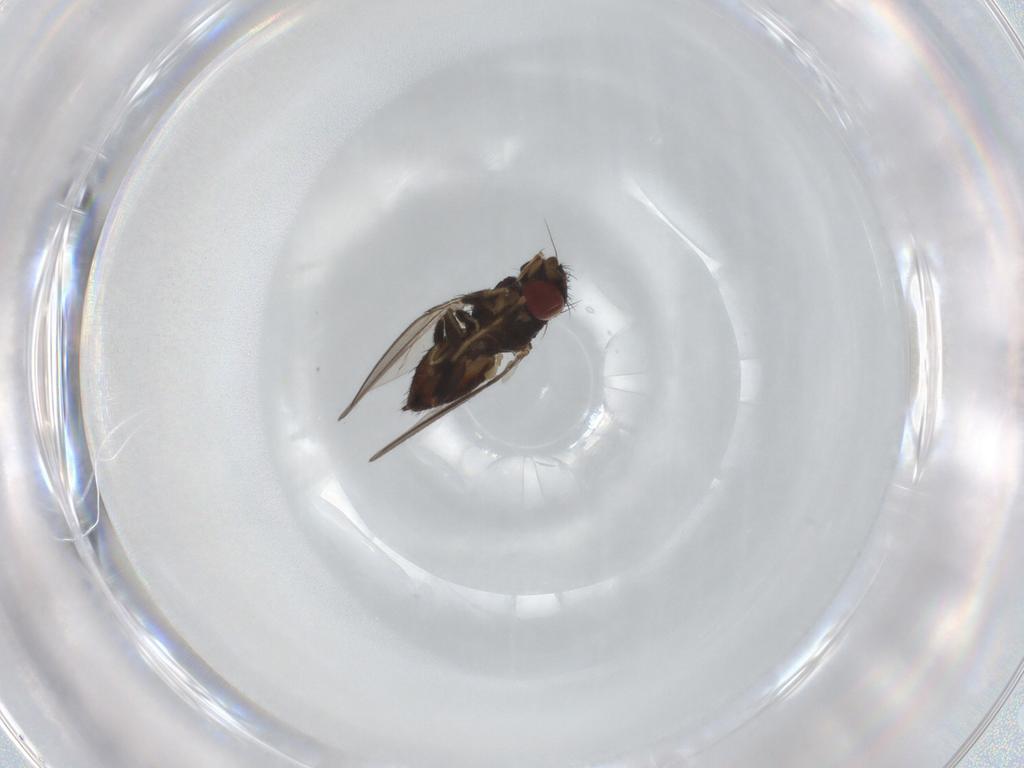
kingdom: Animalia
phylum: Arthropoda
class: Insecta
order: Diptera
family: Milichiidae
